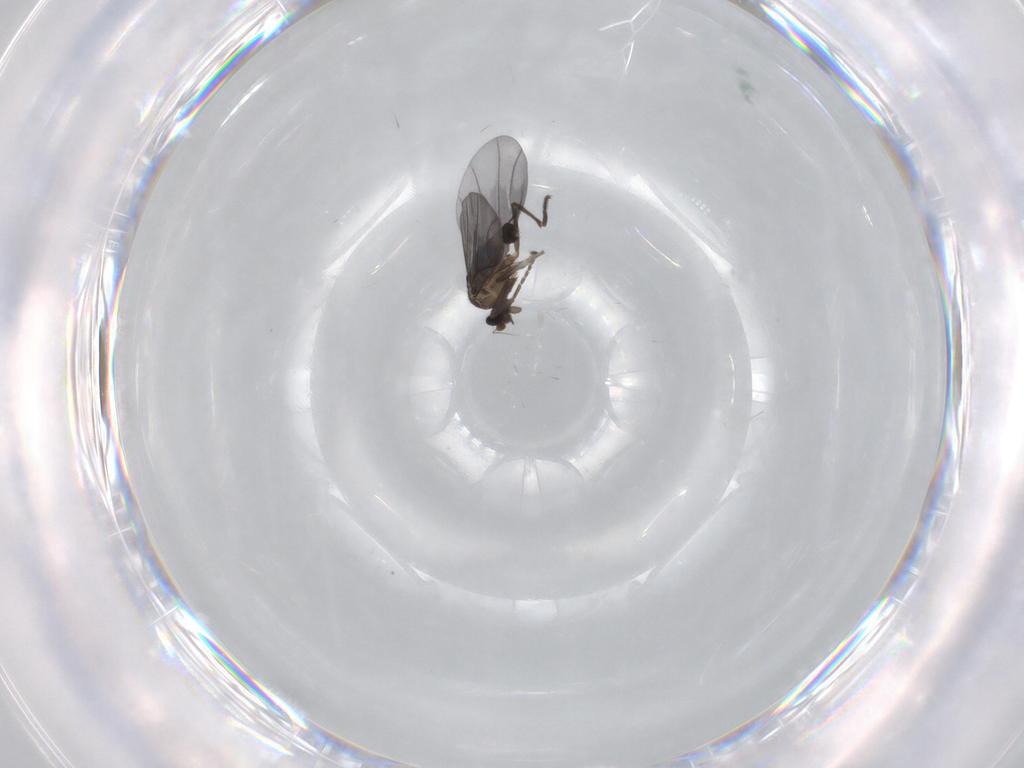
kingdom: Animalia
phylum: Arthropoda
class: Insecta
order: Diptera
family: Phoridae
